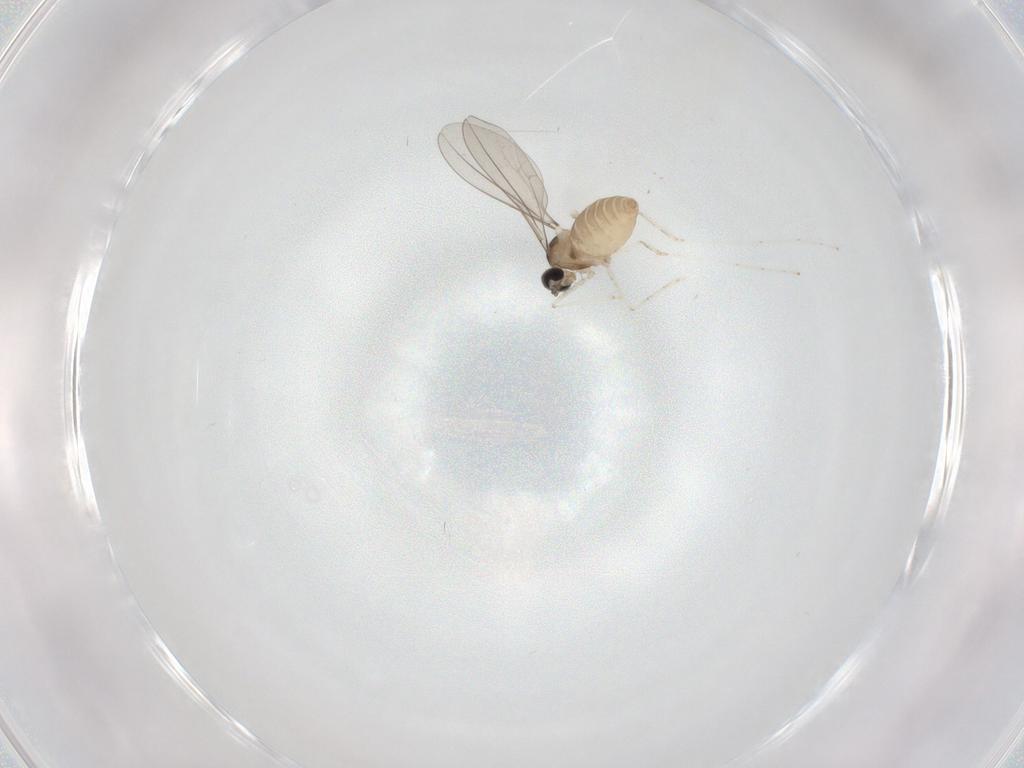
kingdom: Animalia
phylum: Arthropoda
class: Insecta
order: Diptera
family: Cecidomyiidae
